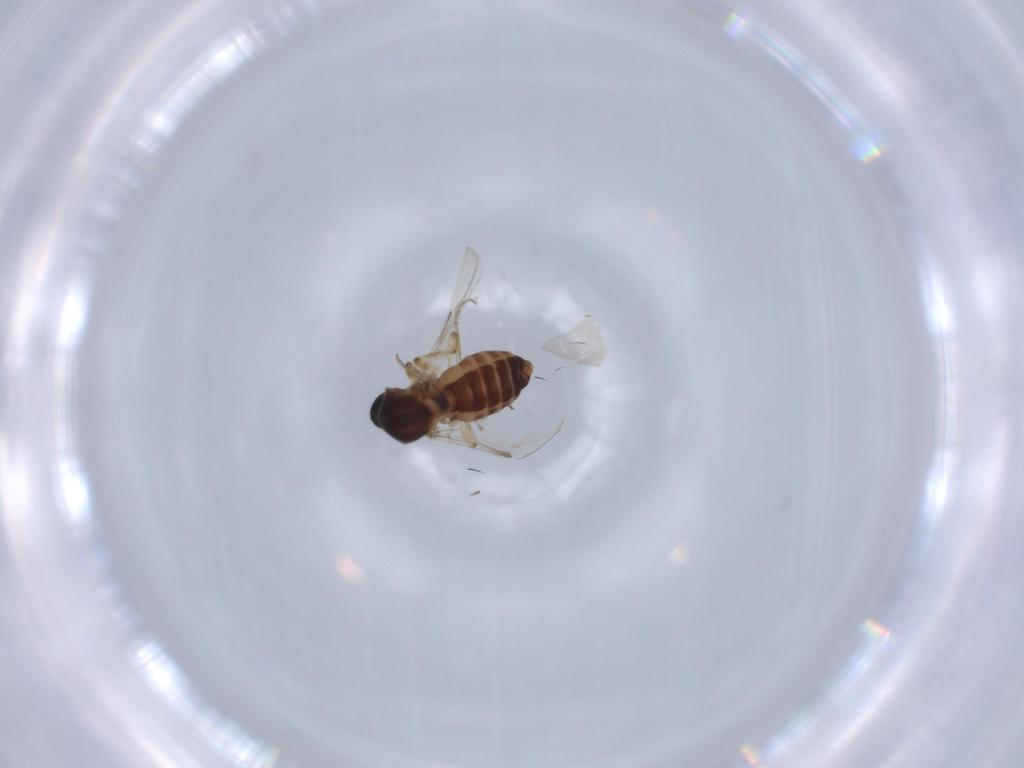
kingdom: Animalia
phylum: Arthropoda
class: Insecta
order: Diptera
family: Ceratopogonidae
